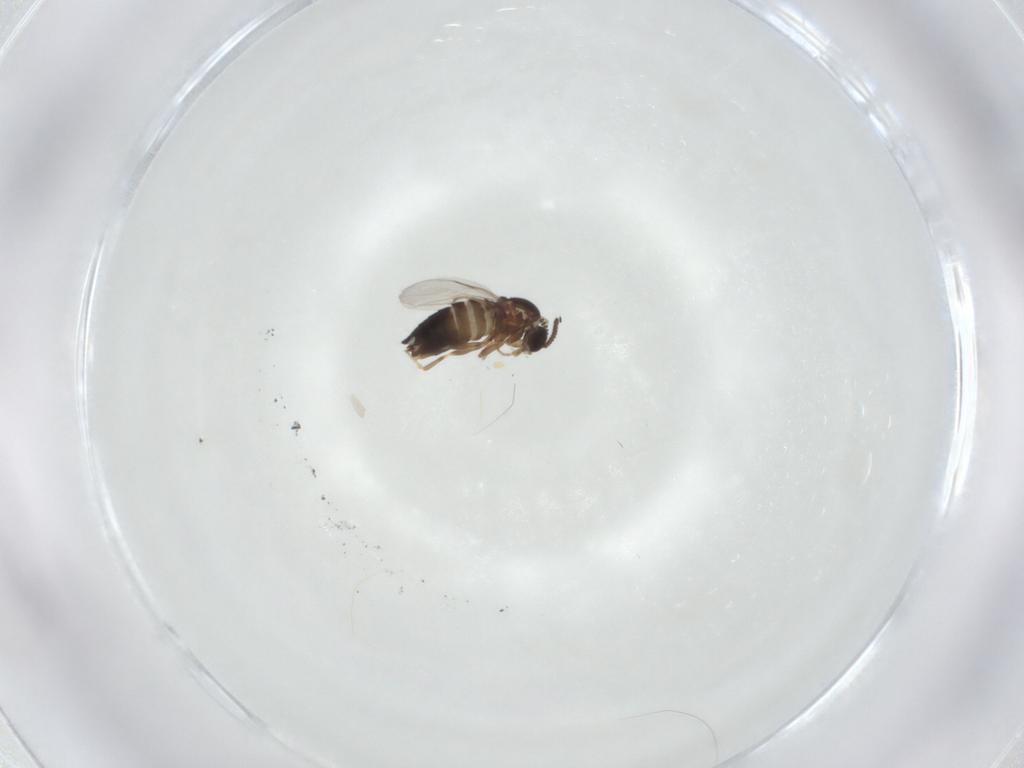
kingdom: Animalia
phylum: Arthropoda
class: Insecta
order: Diptera
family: Scatopsidae
